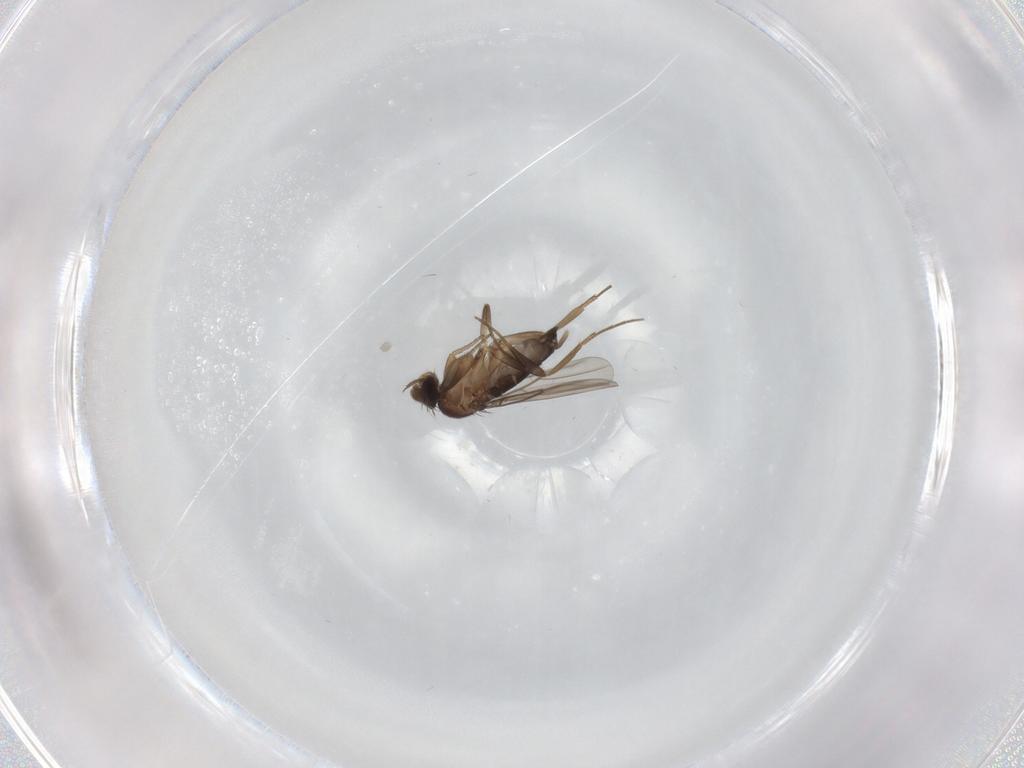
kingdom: Animalia
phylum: Arthropoda
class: Insecta
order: Diptera
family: Phoridae
